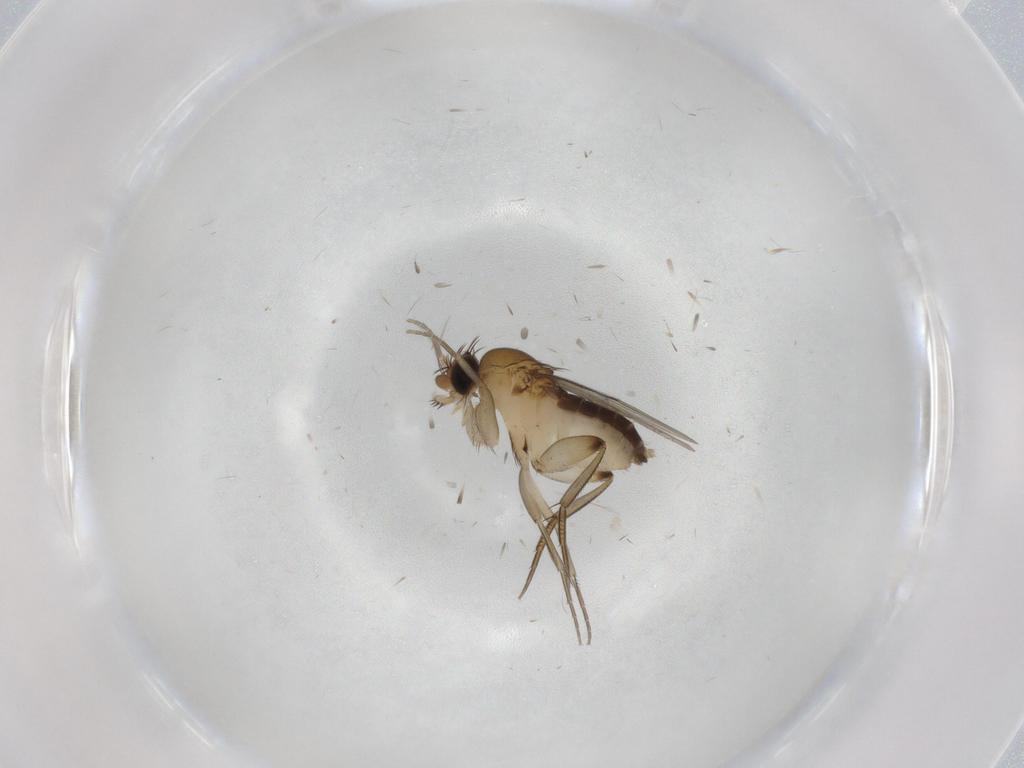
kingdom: Animalia
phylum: Arthropoda
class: Insecta
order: Diptera
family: Phoridae
